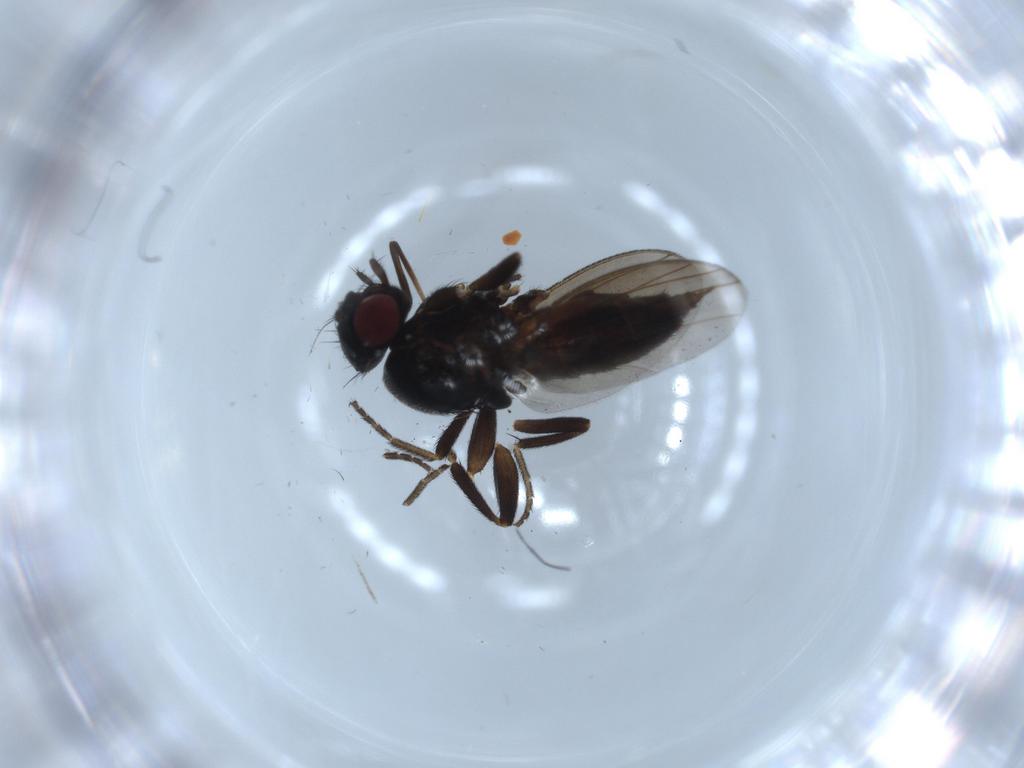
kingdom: Animalia
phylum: Arthropoda
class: Insecta
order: Diptera
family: Milichiidae
